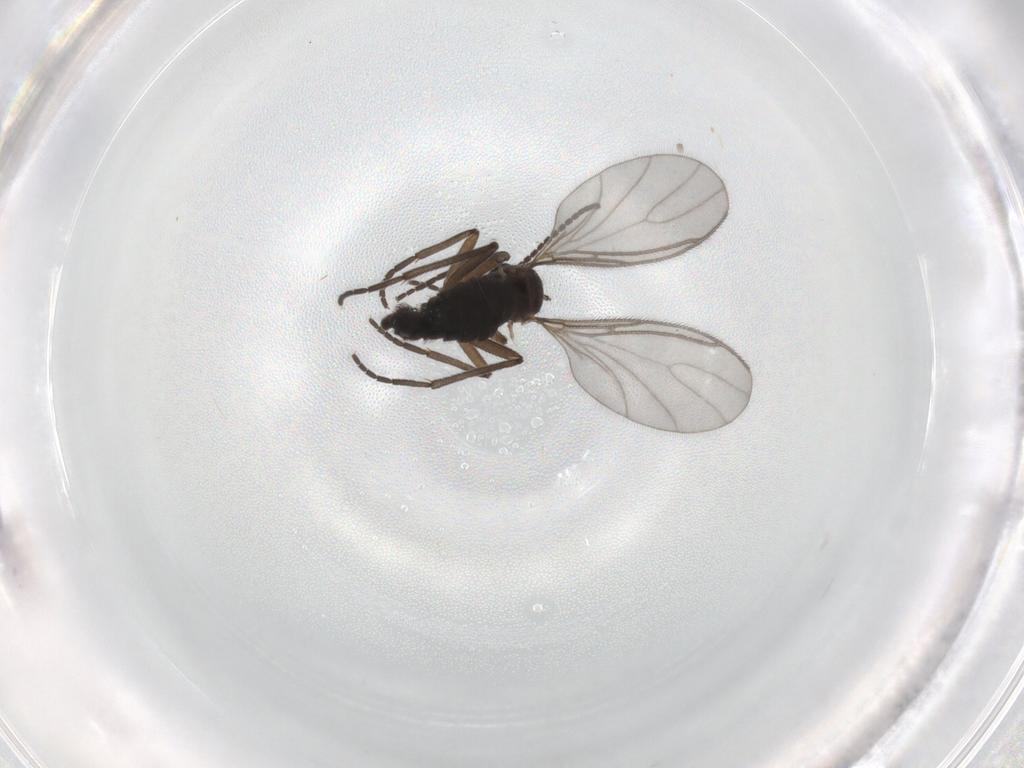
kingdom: Animalia
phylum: Arthropoda
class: Insecta
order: Diptera
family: Sciaridae
